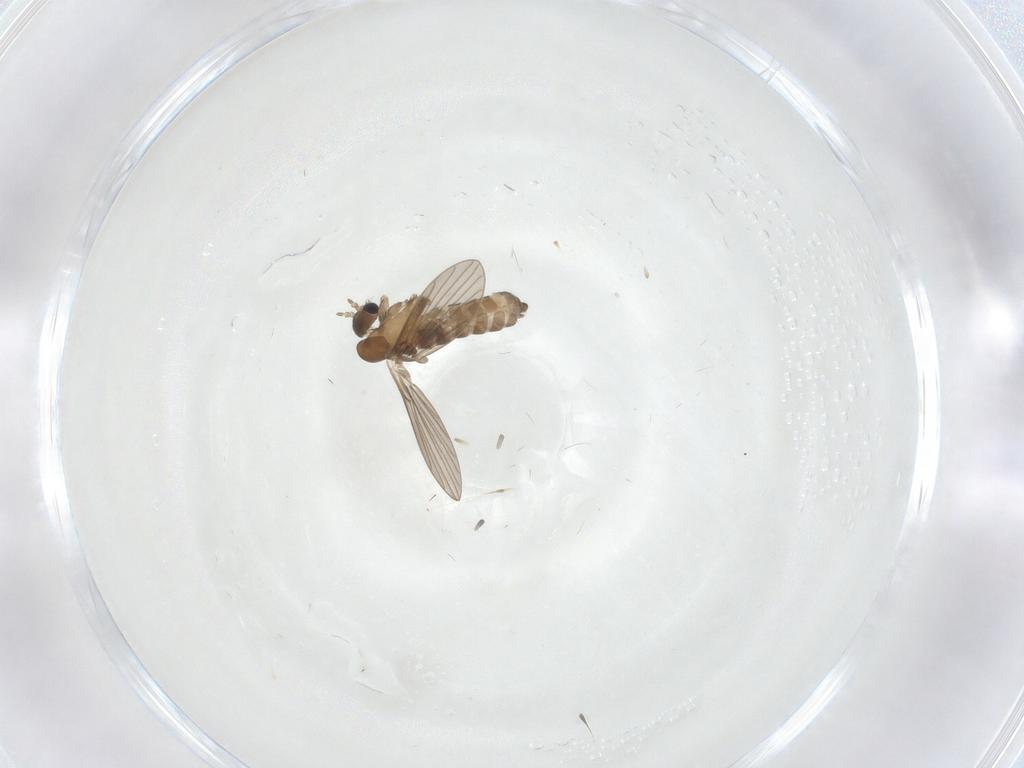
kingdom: Animalia
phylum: Arthropoda
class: Insecta
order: Diptera
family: Psychodidae
